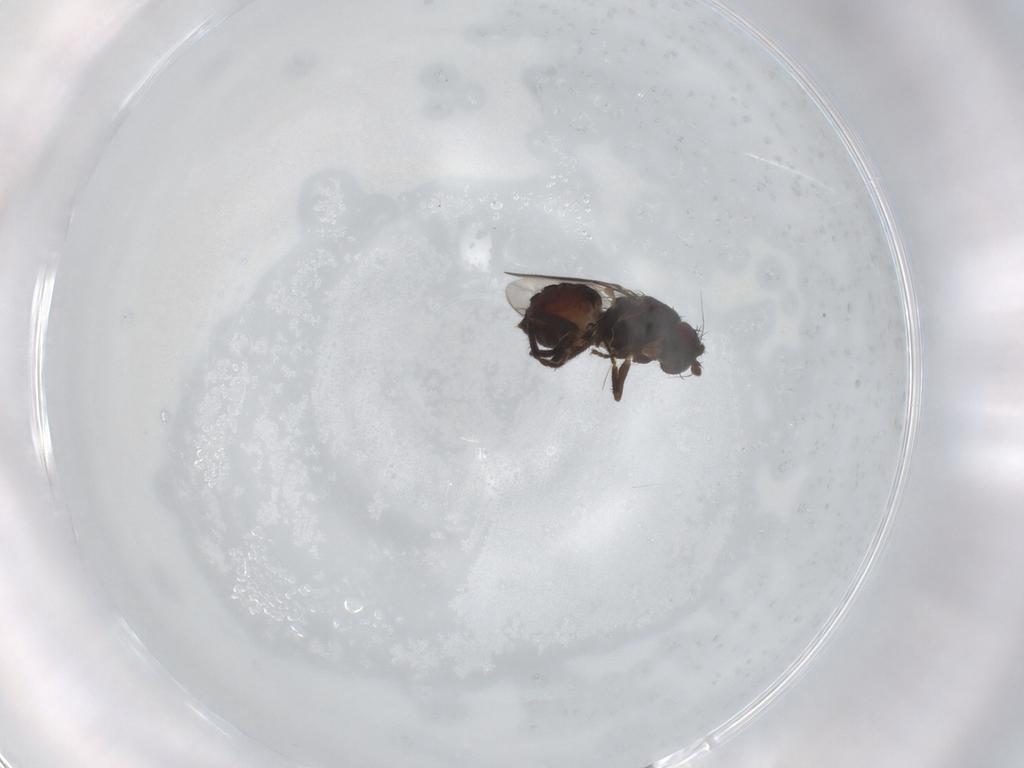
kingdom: Animalia
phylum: Arthropoda
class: Insecta
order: Diptera
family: Sphaeroceridae
